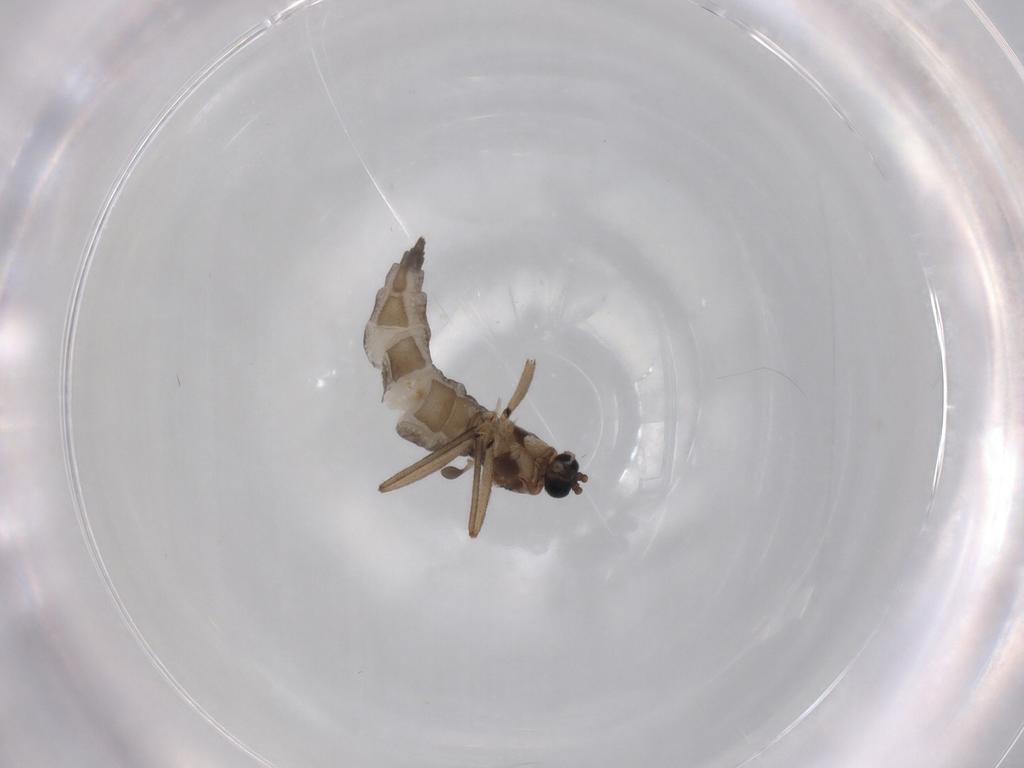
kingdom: Animalia
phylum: Arthropoda
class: Insecta
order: Diptera
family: Sciaridae
